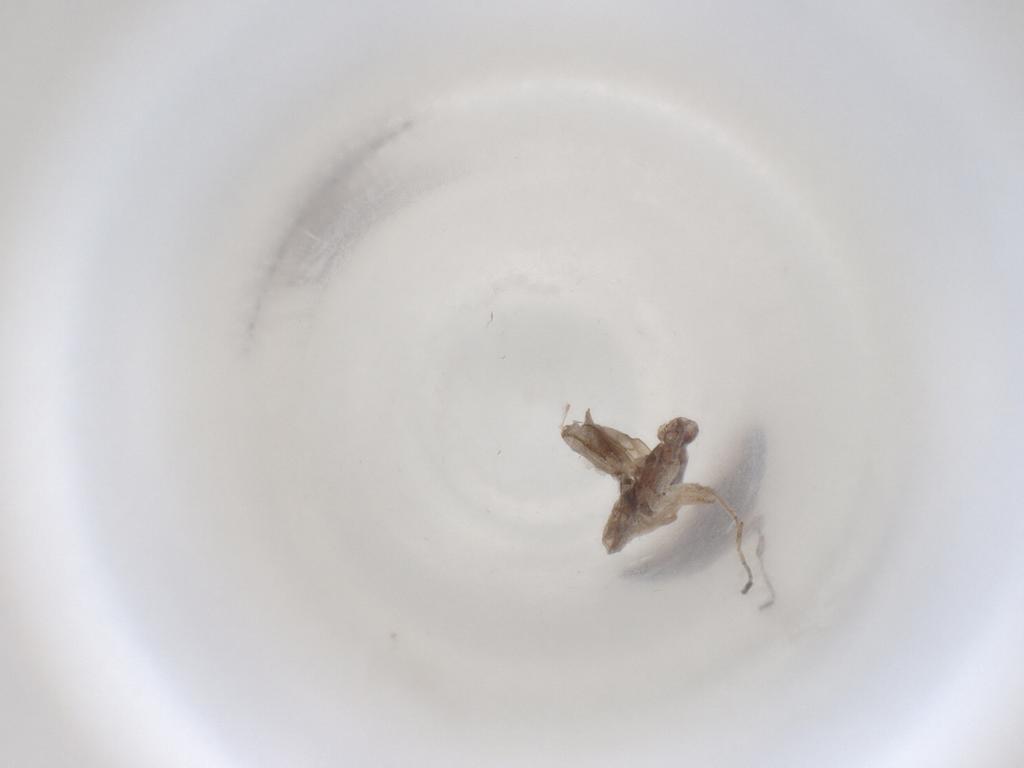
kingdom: Animalia
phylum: Arthropoda
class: Insecta
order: Diptera
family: Cecidomyiidae
